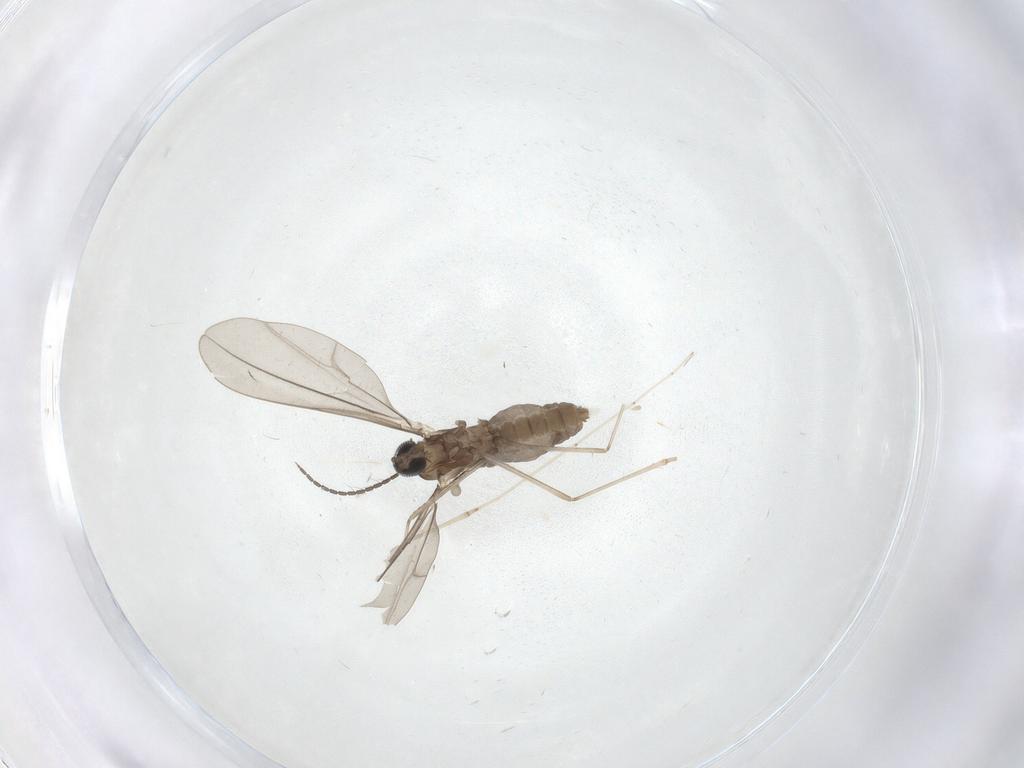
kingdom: Animalia
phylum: Arthropoda
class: Insecta
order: Diptera
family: Cecidomyiidae
